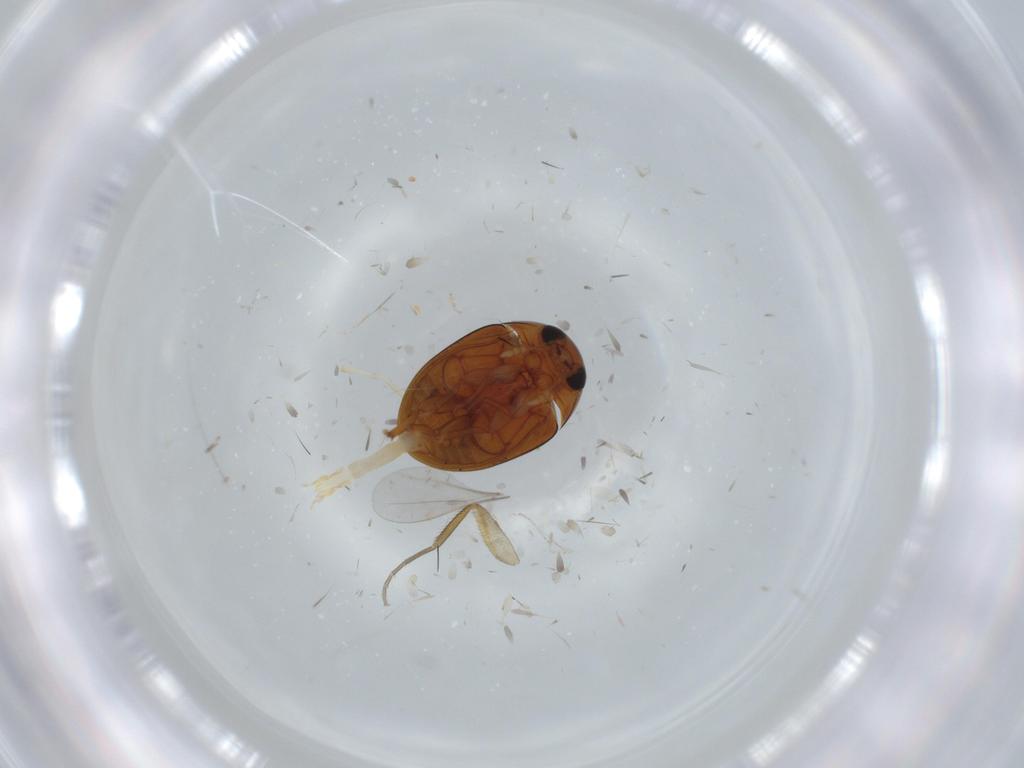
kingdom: Animalia
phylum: Arthropoda
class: Insecta
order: Coleoptera
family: Phalacridae
